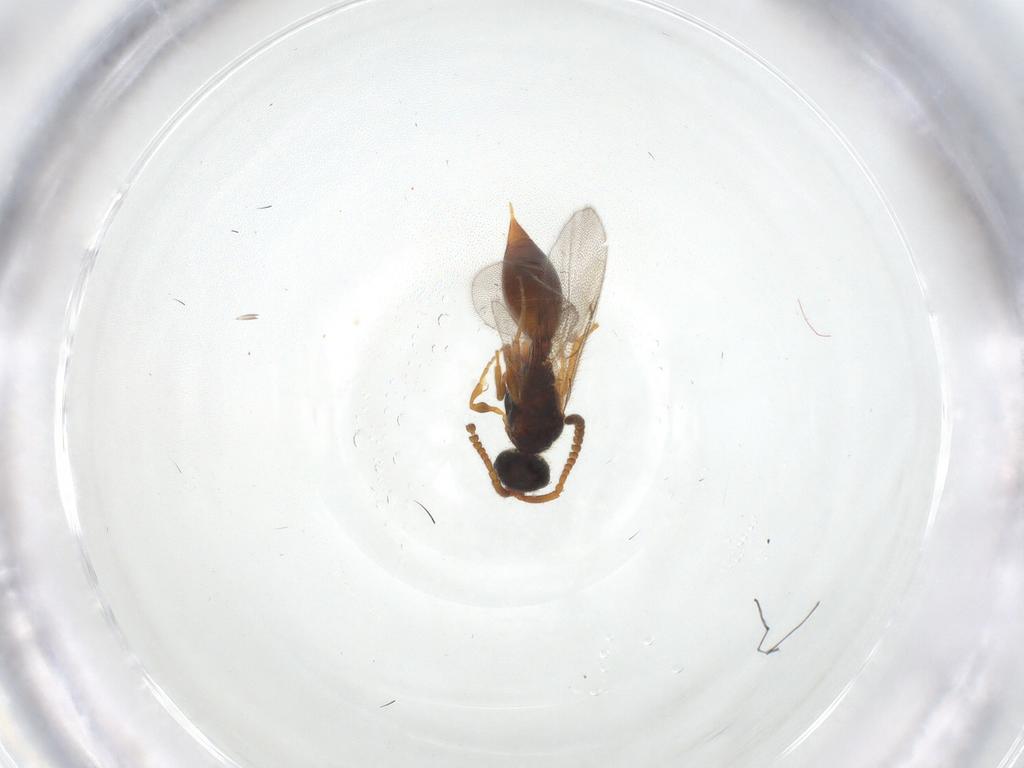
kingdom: Animalia
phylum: Arthropoda
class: Insecta
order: Hymenoptera
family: Diapriidae
